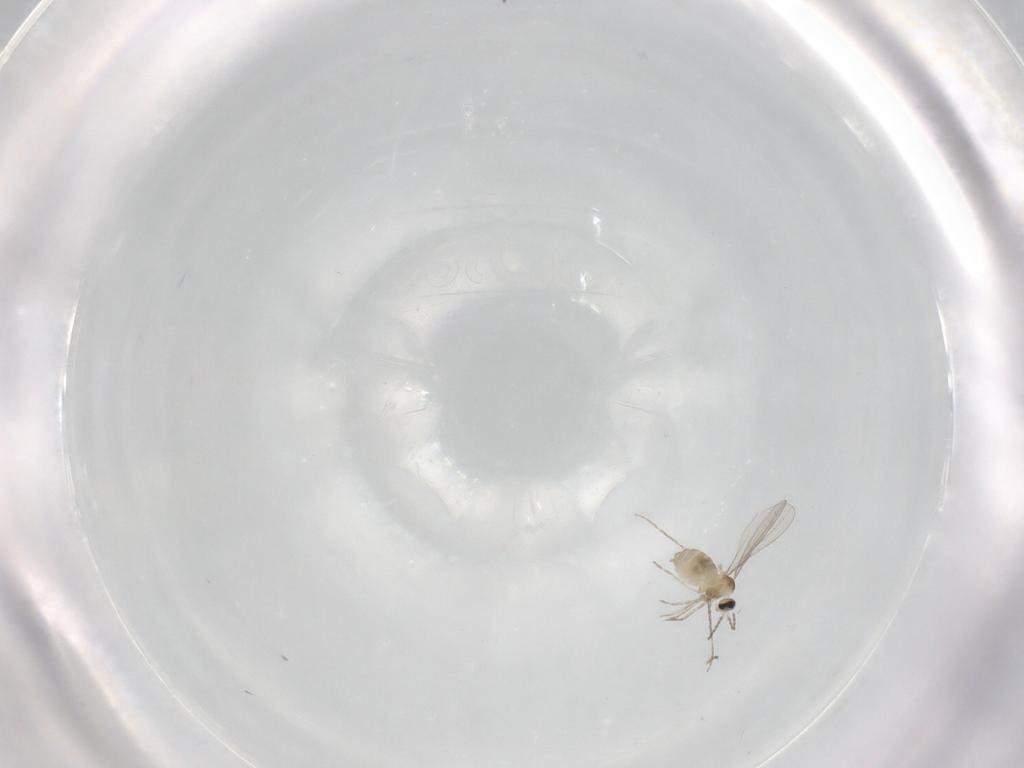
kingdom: Animalia
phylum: Arthropoda
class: Insecta
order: Diptera
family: Cecidomyiidae
